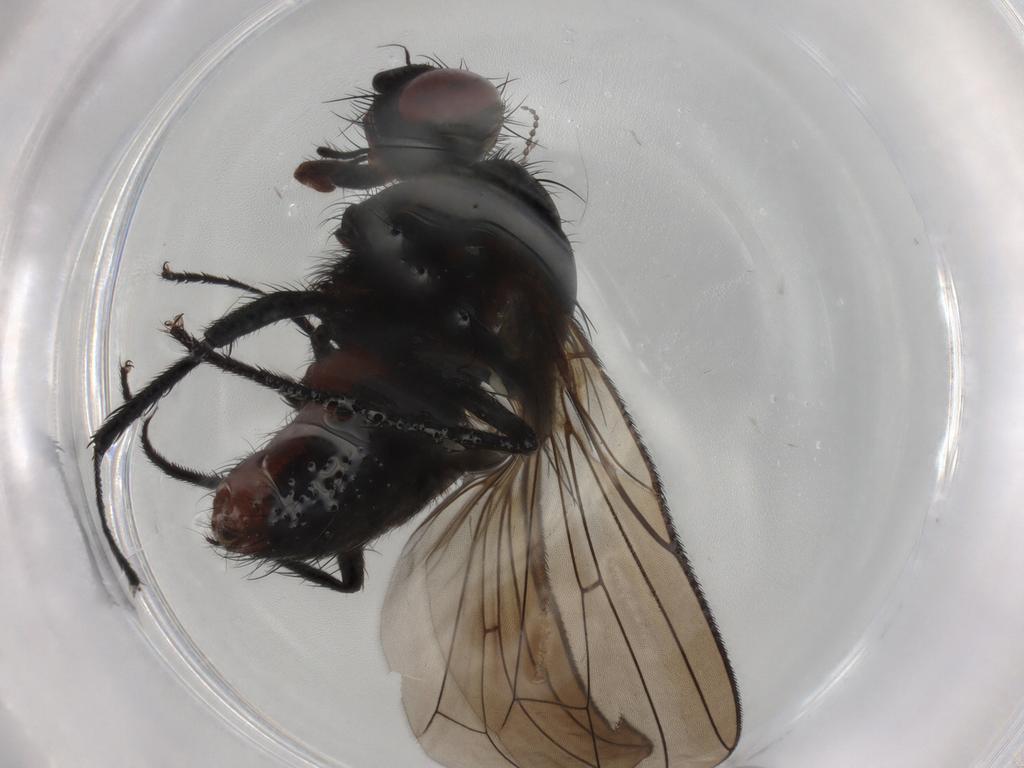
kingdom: Animalia
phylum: Arthropoda
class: Insecta
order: Diptera
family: Anthomyiidae
